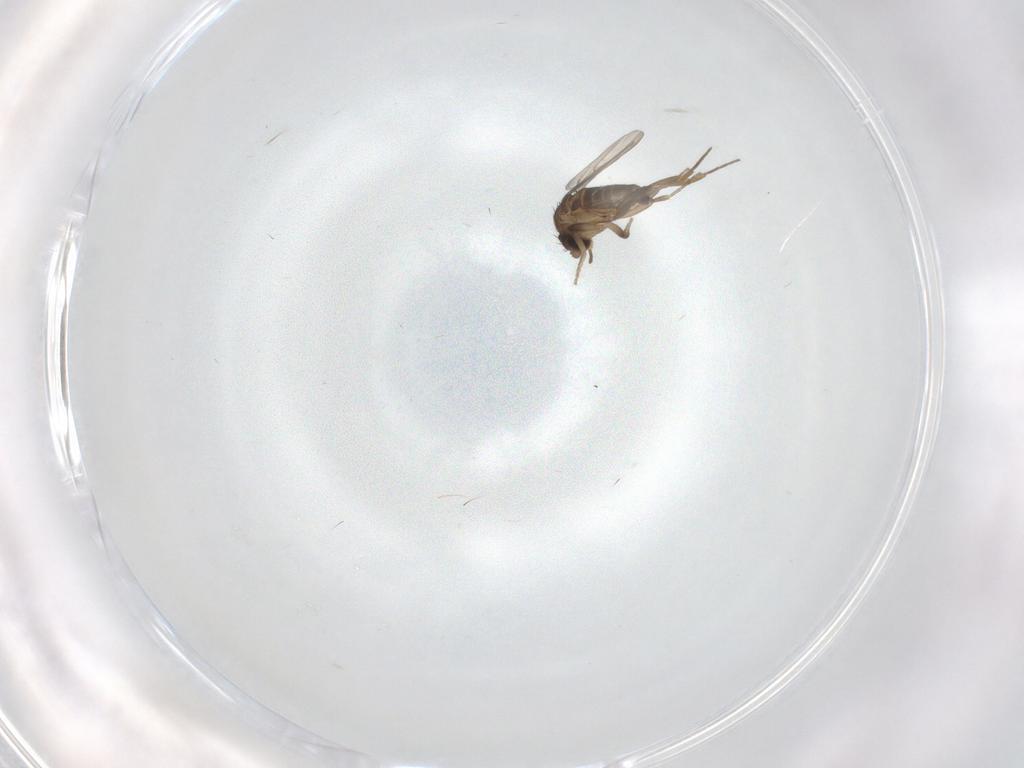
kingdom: Animalia
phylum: Arthropoda
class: Insecta
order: Diptera
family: Phoridae
